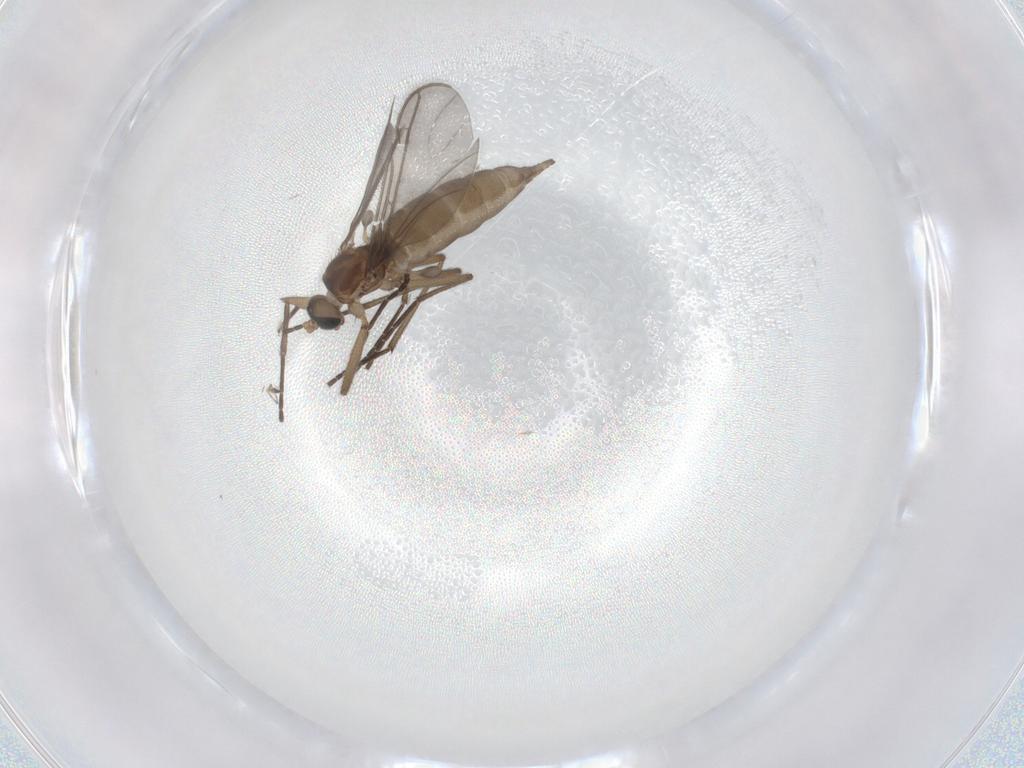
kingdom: Animalia
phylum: Arthropoda
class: Insecta
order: Diptera
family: Sciaridae
